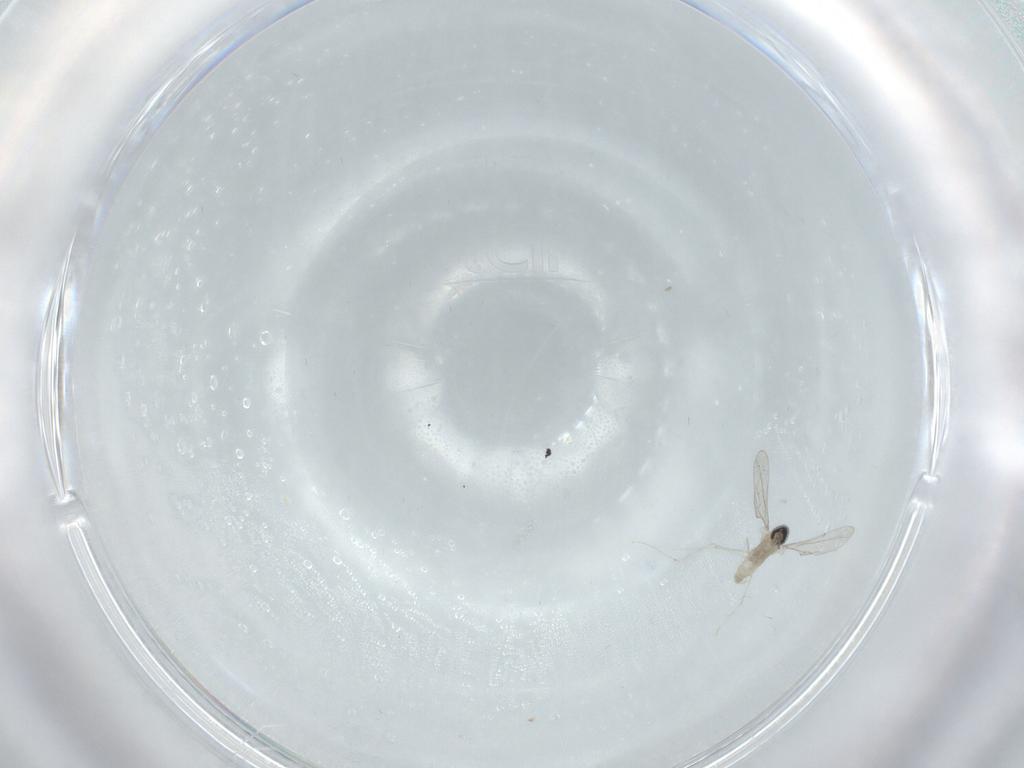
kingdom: Animalia
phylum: Arthropoda
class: Insecta
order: Diptera
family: Cecidomyiidae
